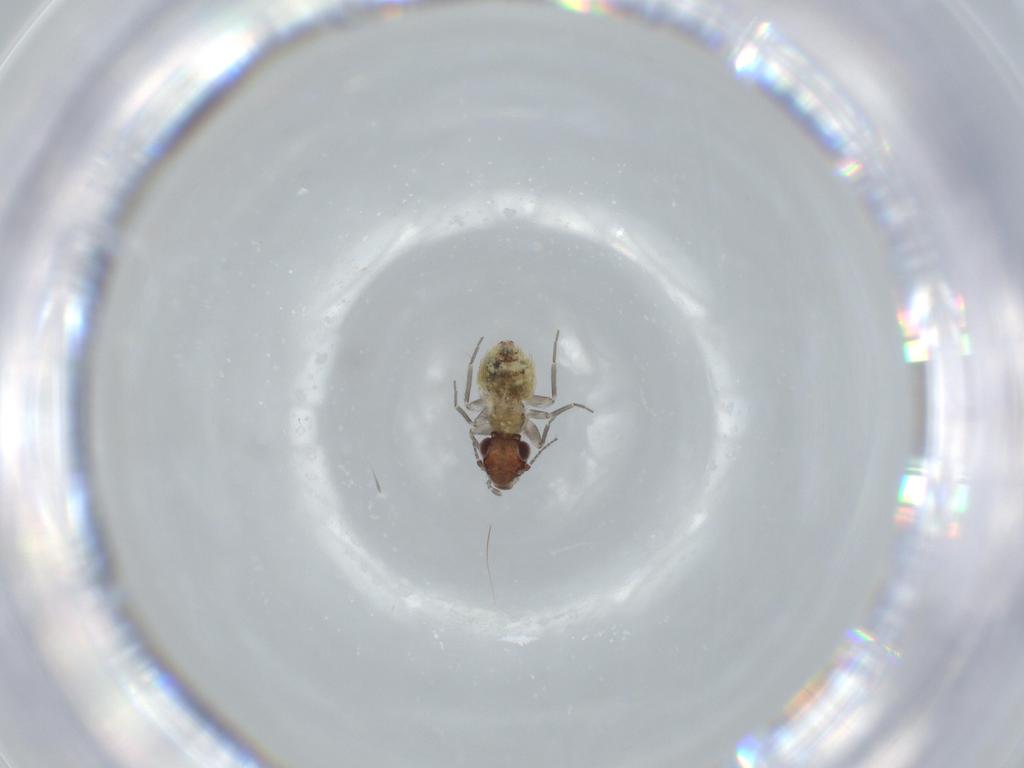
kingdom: Animalia
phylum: Arthropoda
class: Insecta
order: Psocodea
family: Lepidopsocidae
